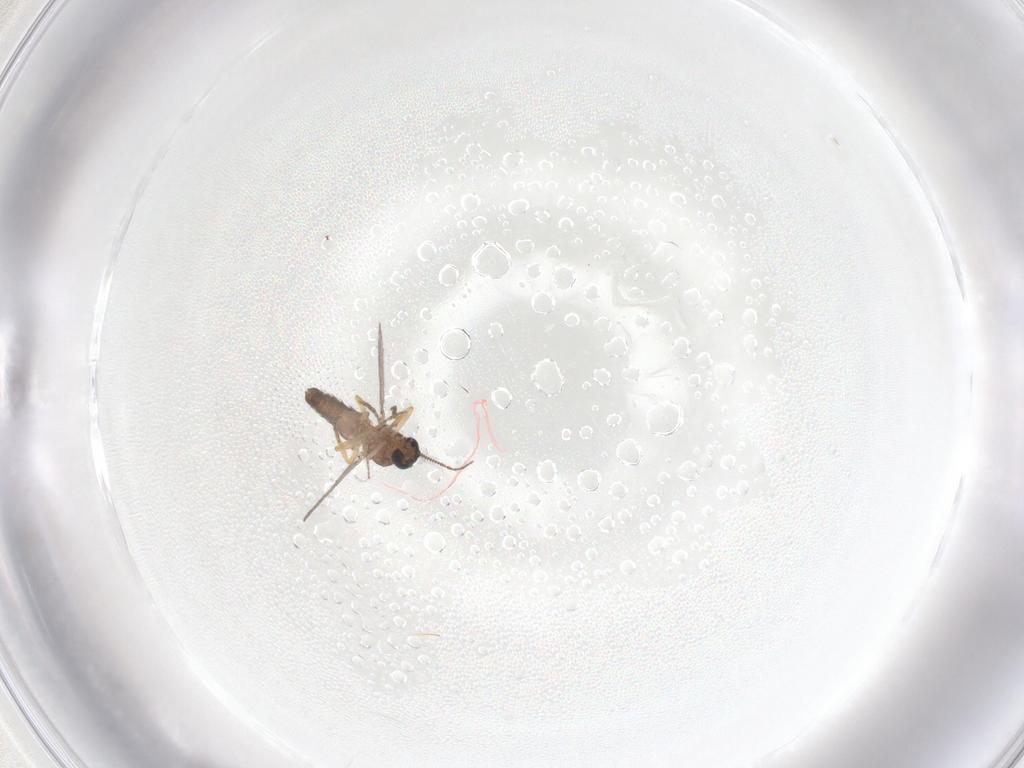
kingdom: Animalia
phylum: Arthropoda
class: Insecta
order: Diptera
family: Ceratopogonidae
